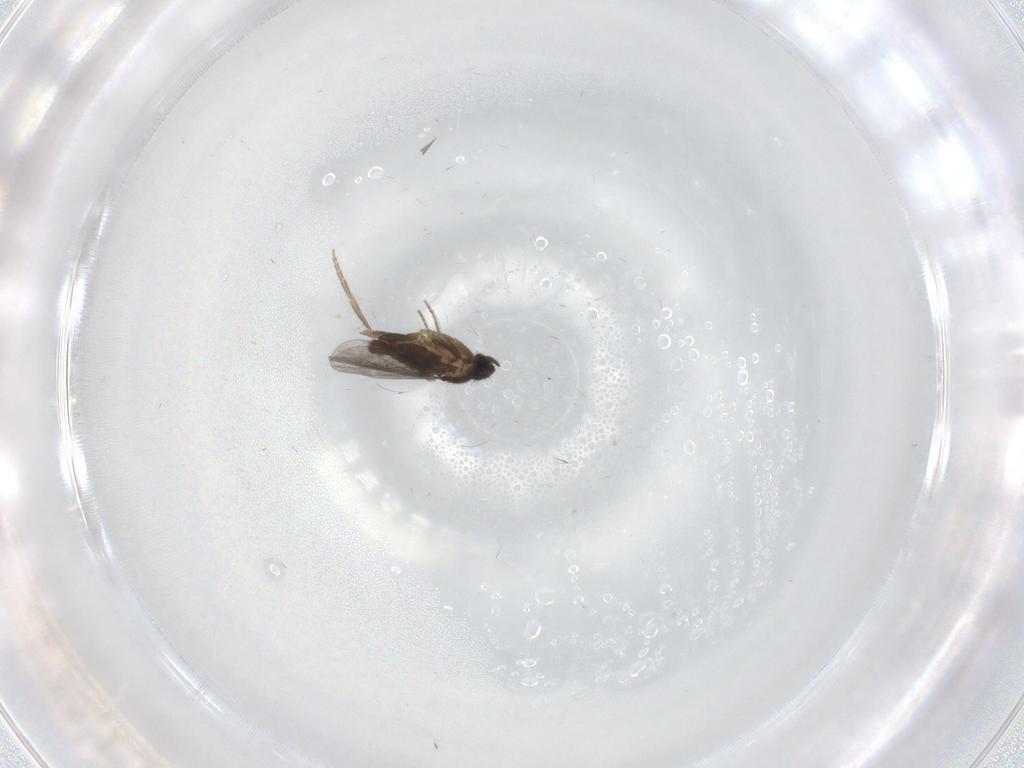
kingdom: Animalia
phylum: Arthropoda
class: Insecta
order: Diptera
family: Phoridae
